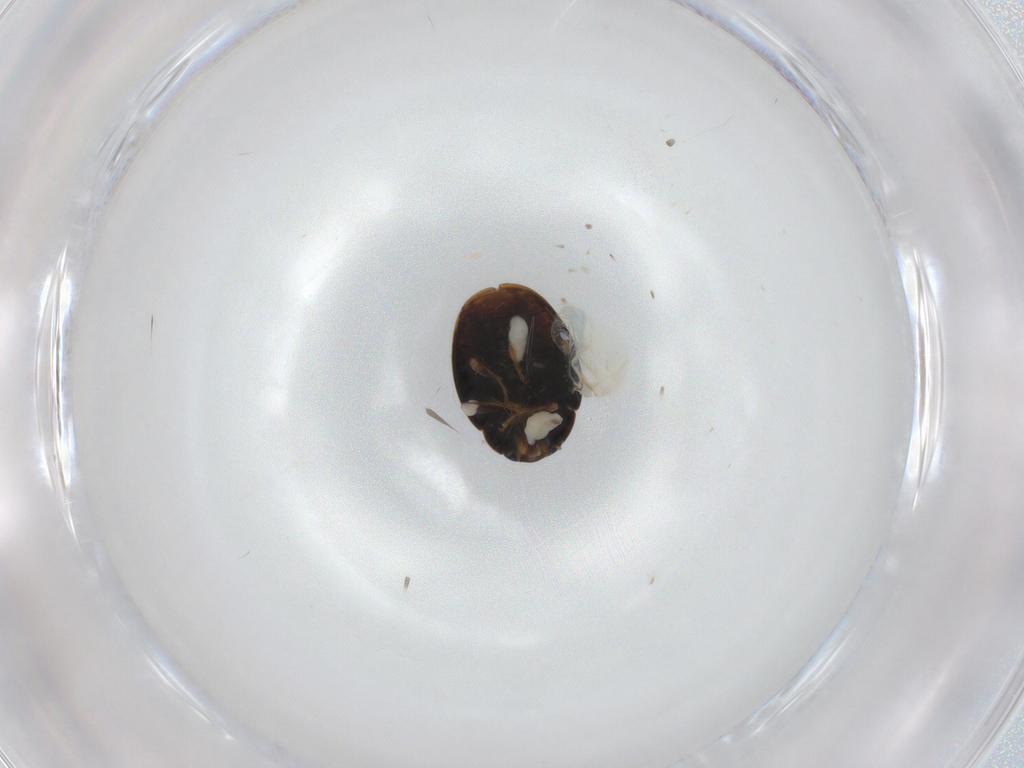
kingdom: Animalia
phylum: Arthropoda
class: Insecta
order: Coleoptera
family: Coccinellidae
